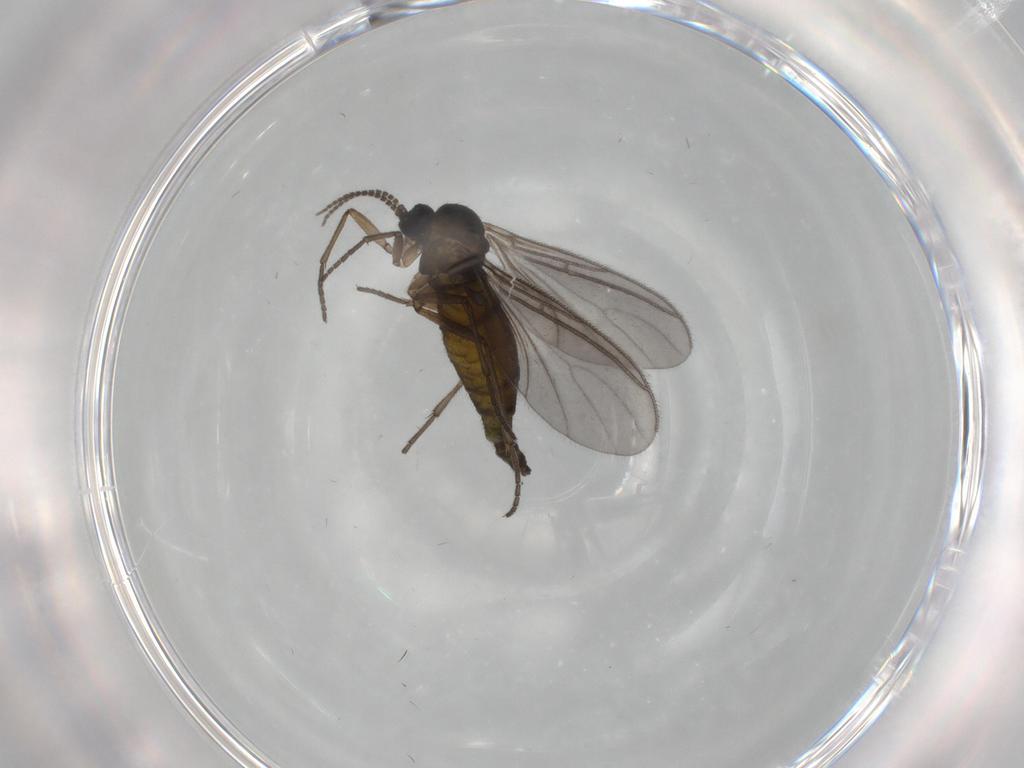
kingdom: Animalia
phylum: Arthropoda
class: Insecta
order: Diptera
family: Sciaridae
